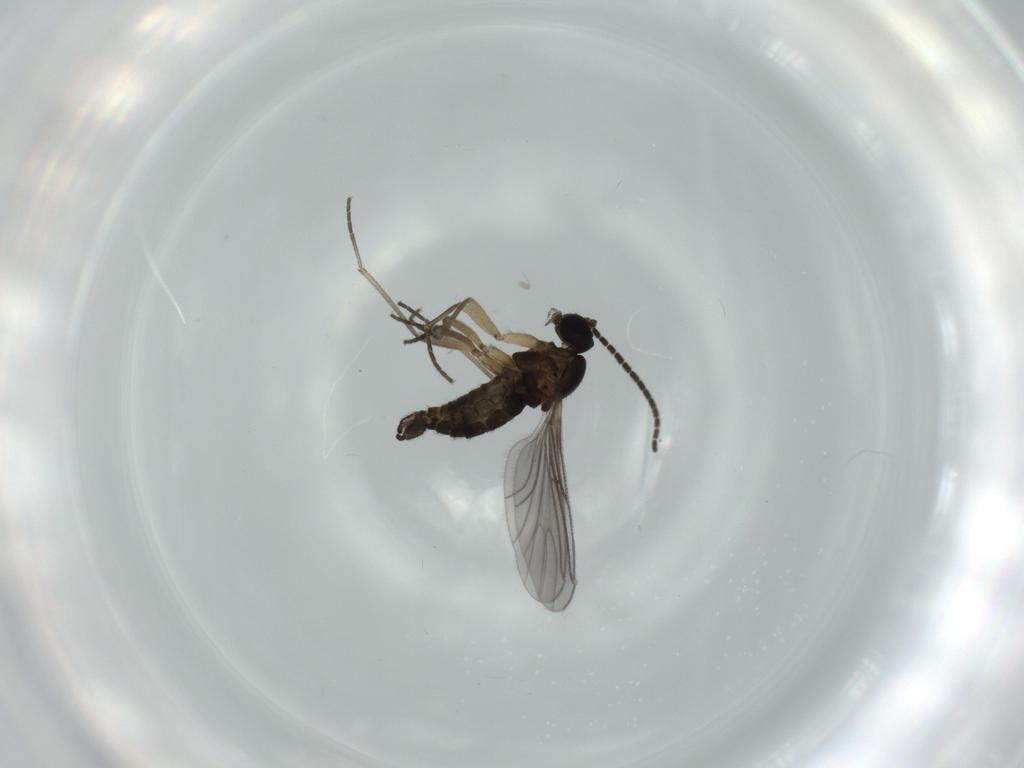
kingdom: Animalia
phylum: Arthropoda
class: Insecta
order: Diptera
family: Sciaridae
